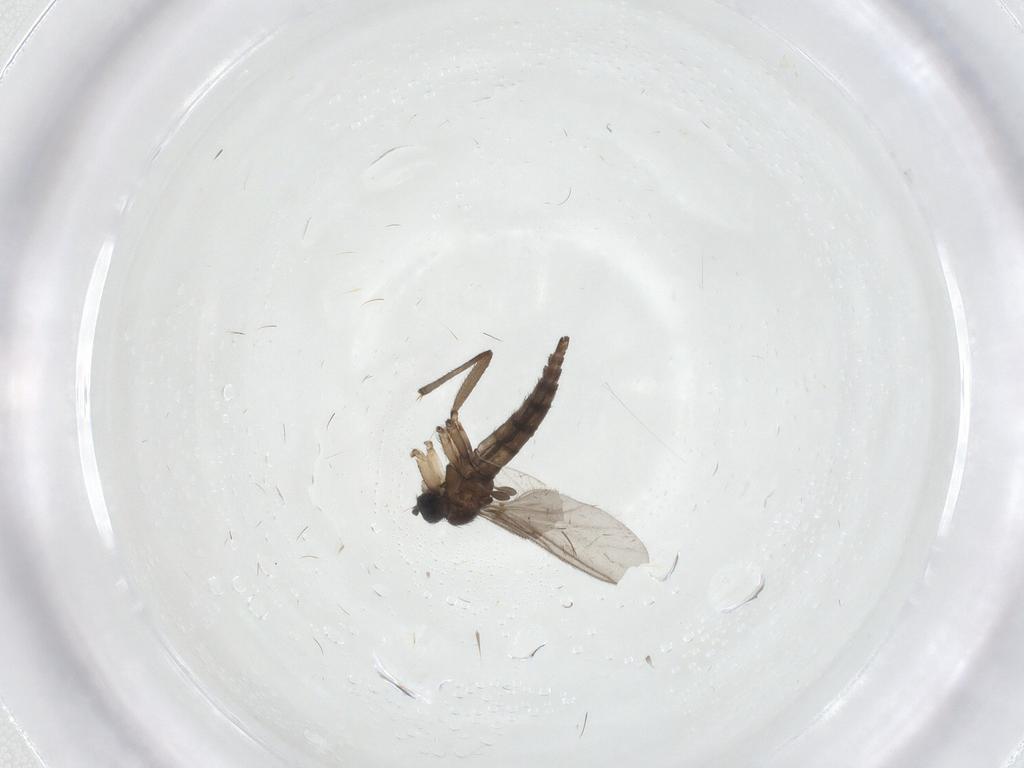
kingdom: Animalia
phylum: Arthropoda
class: Insecta
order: Diptera
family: Sciaridae
